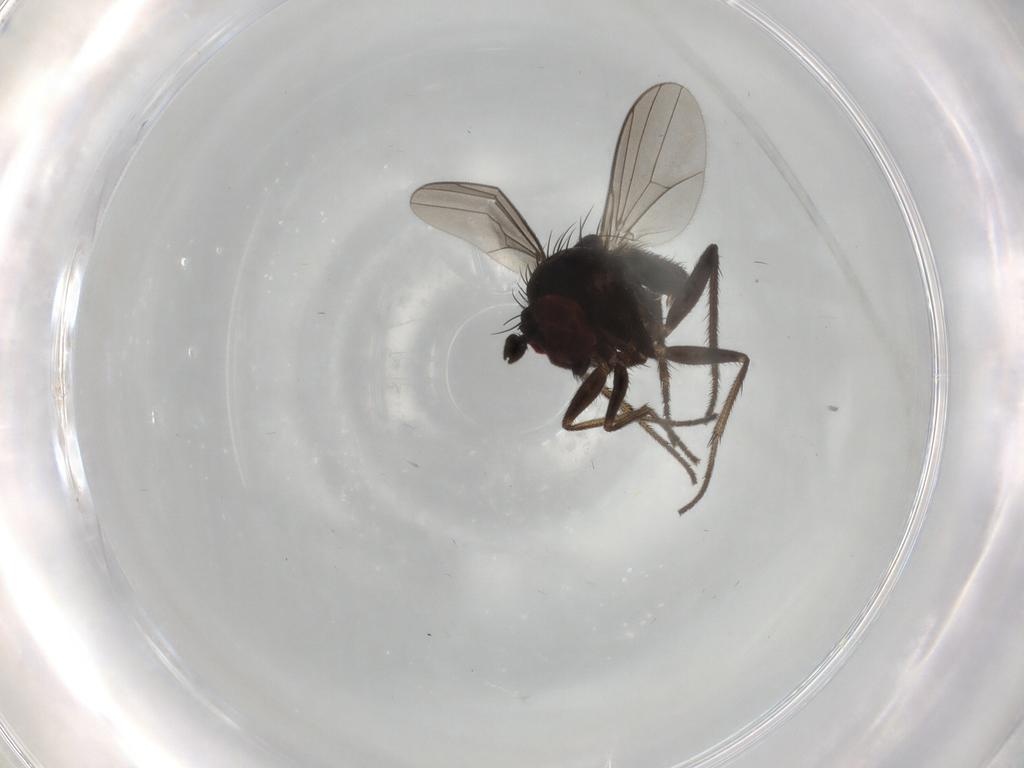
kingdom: Animalia
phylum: Arthropoda
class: Insecta
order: Diptera
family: Dolichopodidae
